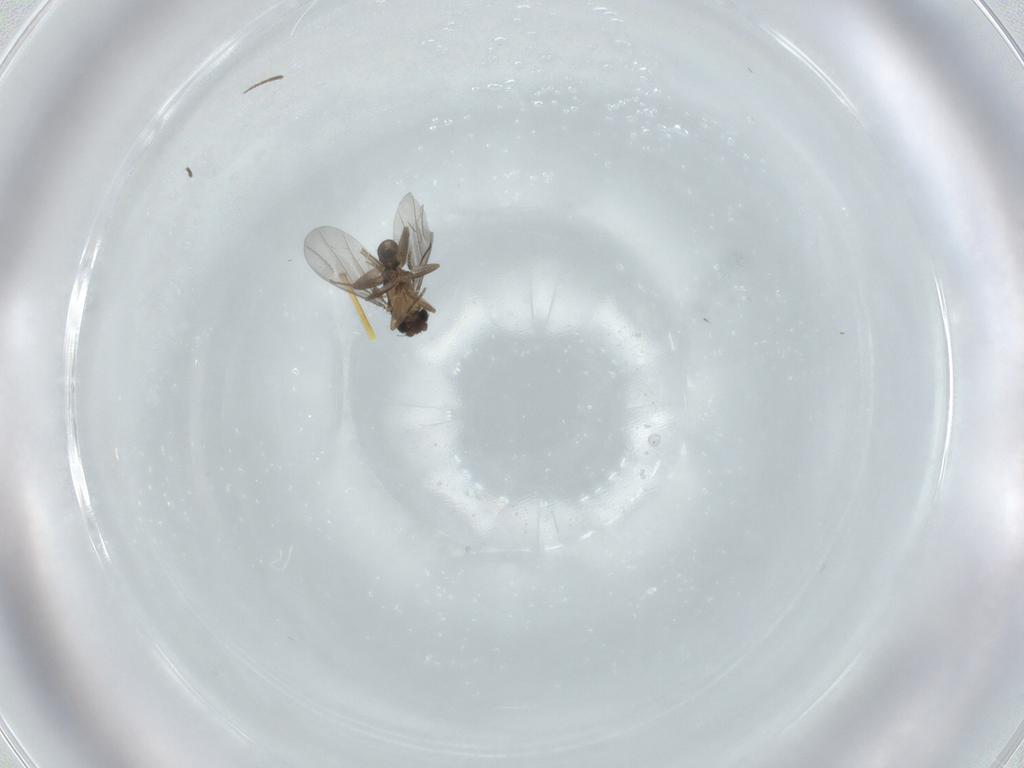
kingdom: Animalia
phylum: Arthropoda
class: Insecta
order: Diptera
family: Sciaridae
